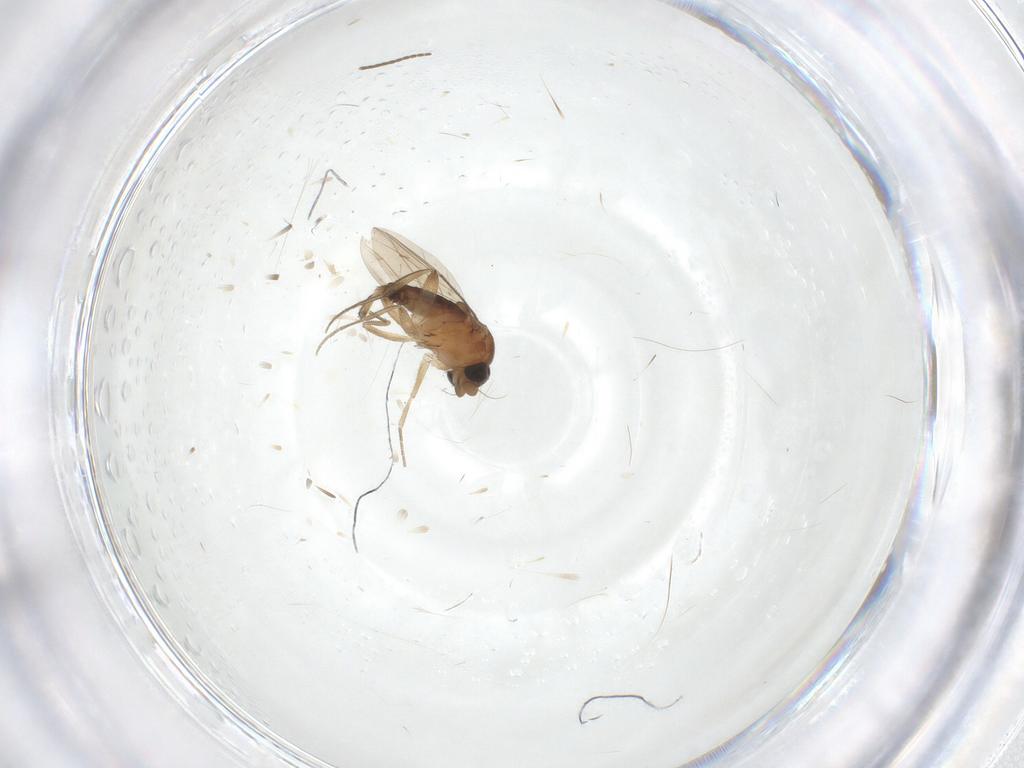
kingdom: Animalia
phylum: Arthropoda
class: Insecta
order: Diptera
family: Phoridae
